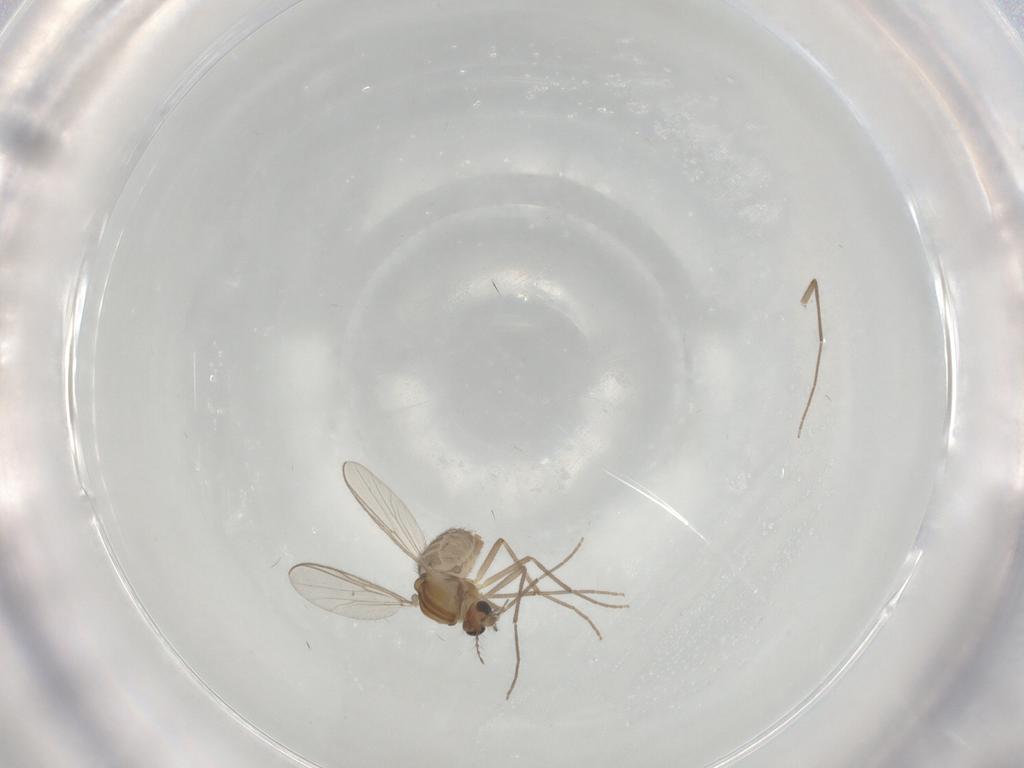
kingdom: Animalia
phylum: Arthropoda
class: Insecta
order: Diptera
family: Chironomidae
